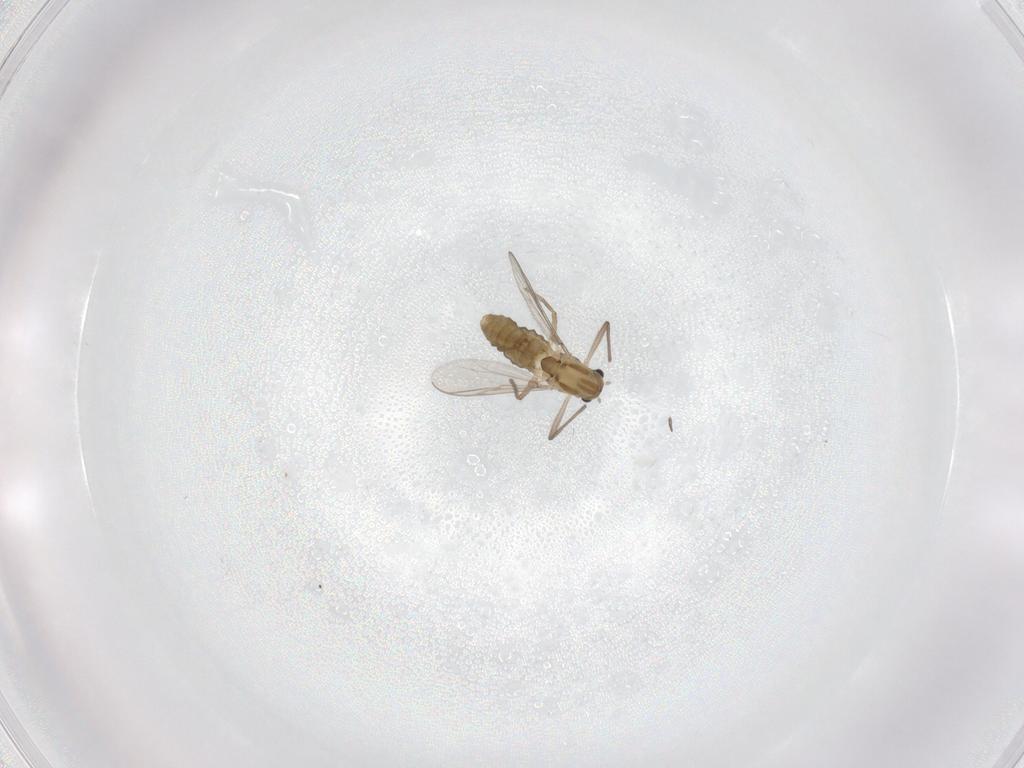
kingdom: Animalia
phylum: Arthropoda
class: Insecta
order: Diptera
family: Chironomidae
